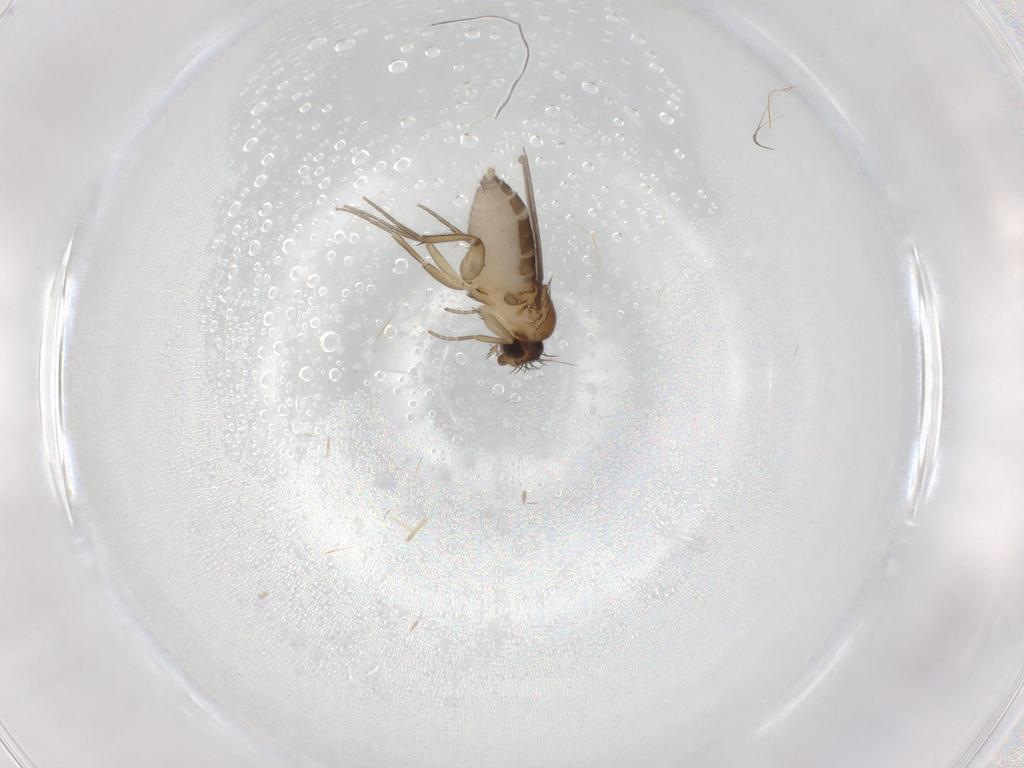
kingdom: Animalia
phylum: Arthropoda
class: Insecta
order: Diptera
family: Phoridae
